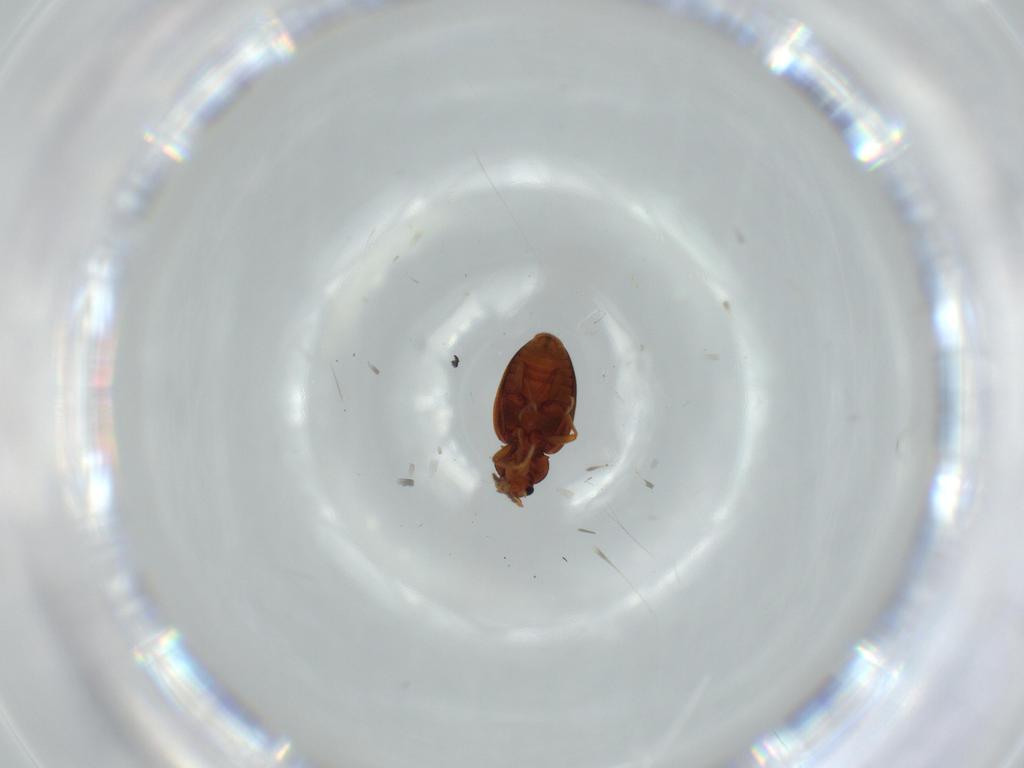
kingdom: Animalia
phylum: Arthropoda
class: Insecta
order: Coleoptera
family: Latridiidae
